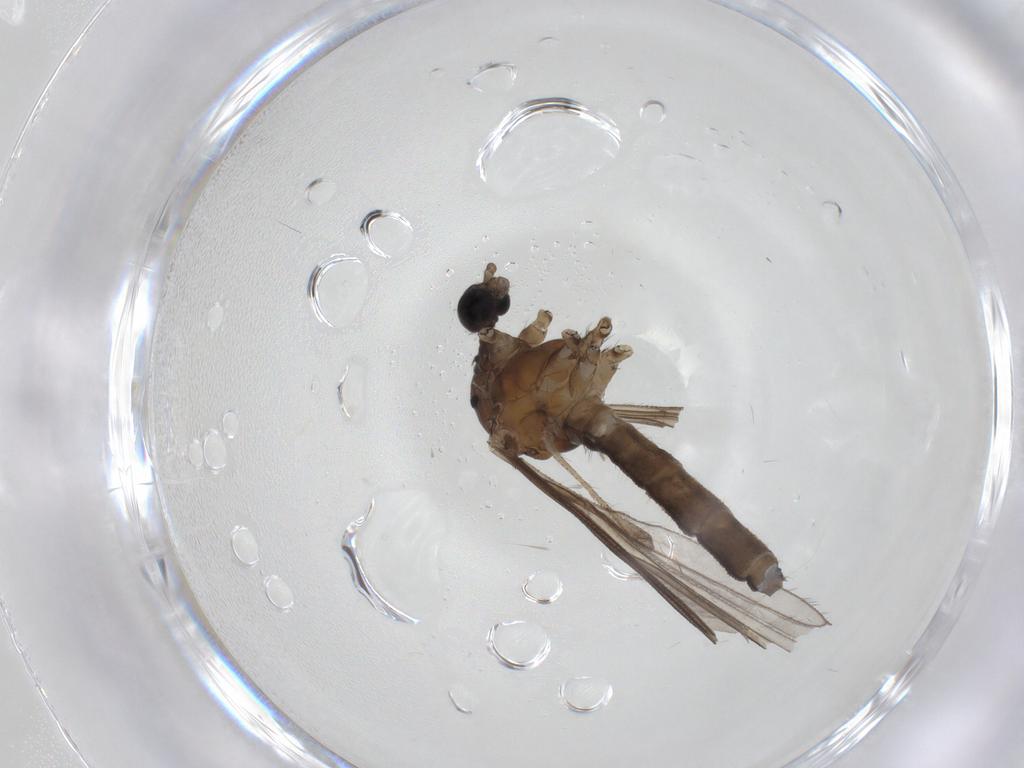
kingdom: Animalia
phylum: Arthropoda
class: Insecta
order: Diptera
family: Limoniidae
